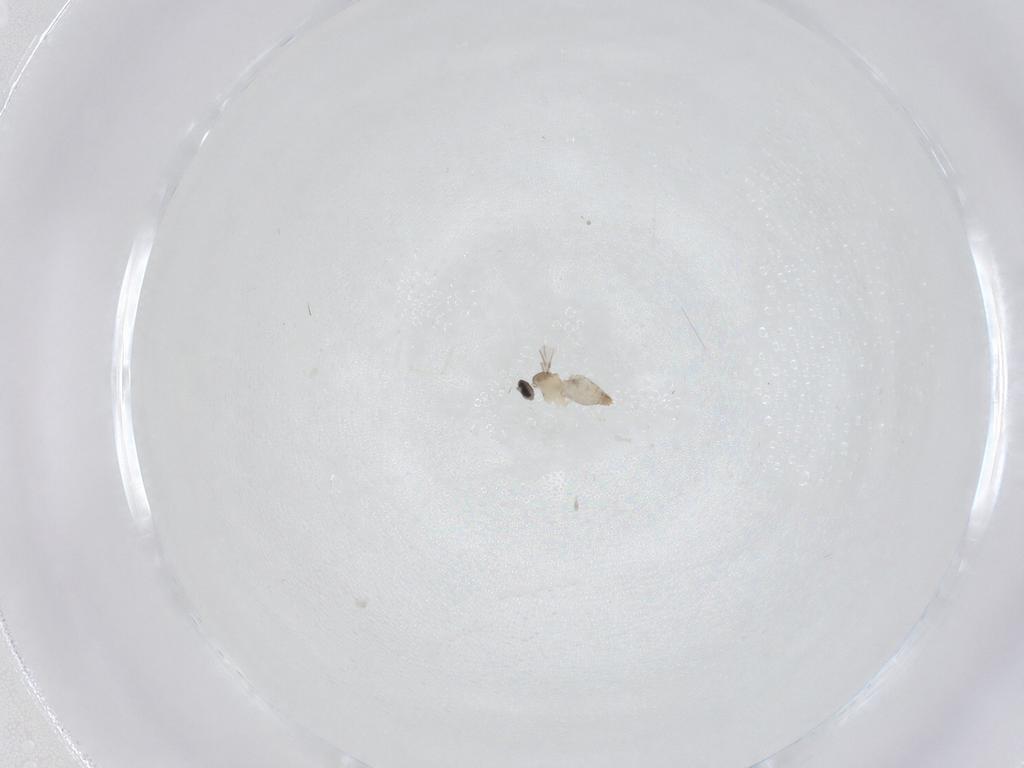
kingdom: Animalia
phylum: Arthropoda
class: Insecta
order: Diptera
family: Cecidomyiidae
